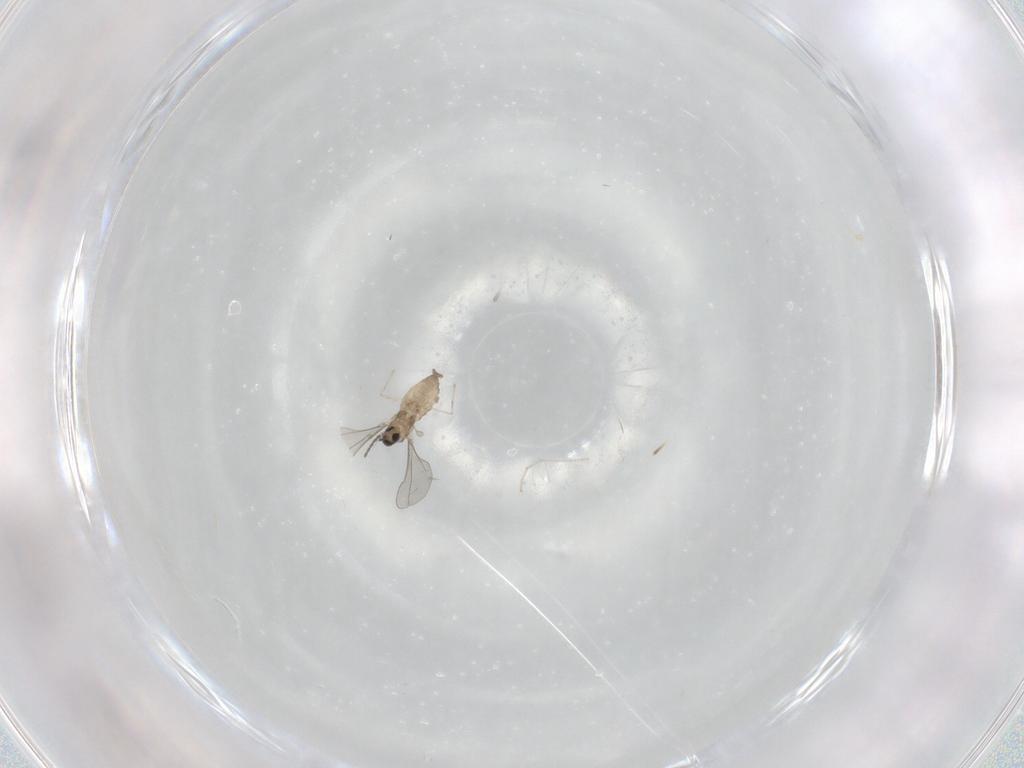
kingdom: Animalia
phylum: Arthropoda
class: Insecta
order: Diptera
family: Cecidomyiidae
